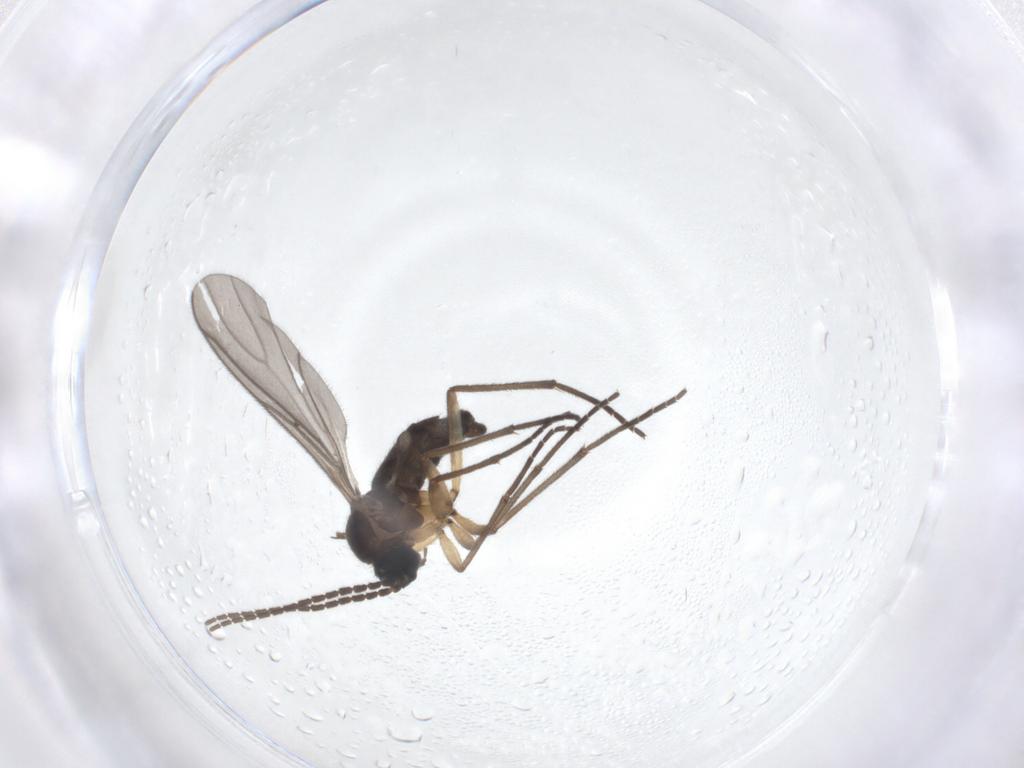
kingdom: Animalia
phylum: Arthropoda
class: Insecta
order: Diptera
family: Sciaridae
